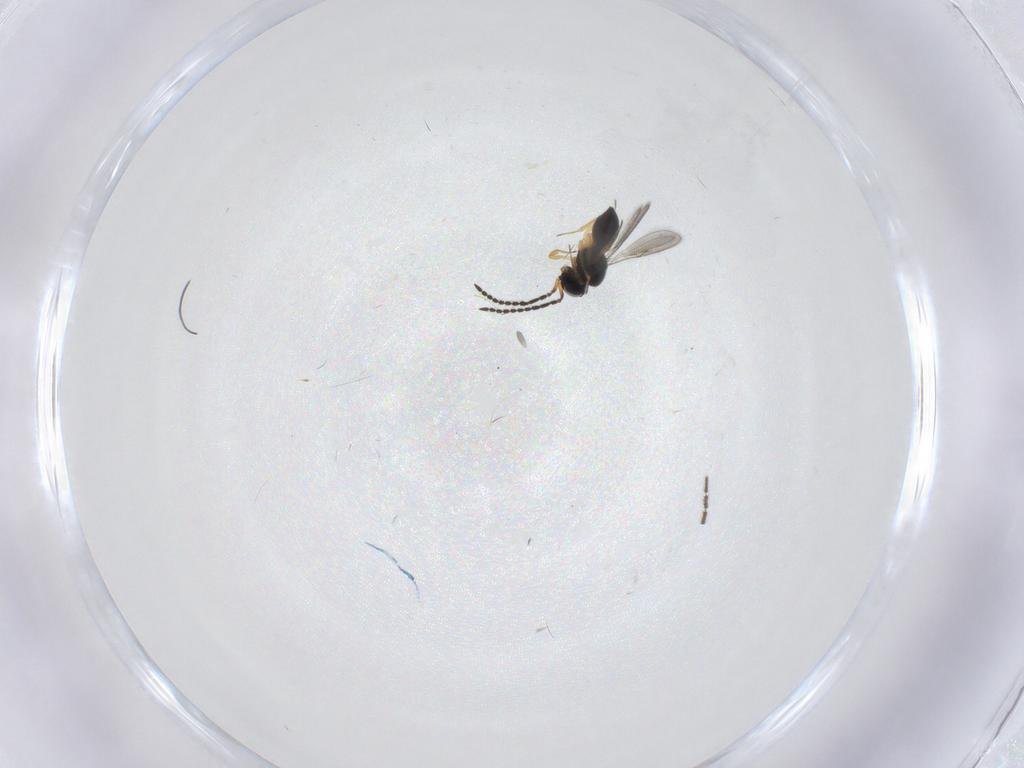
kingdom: Animalia
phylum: Arthropoda
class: Insecta
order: Hymenoptera
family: Scelionidae
